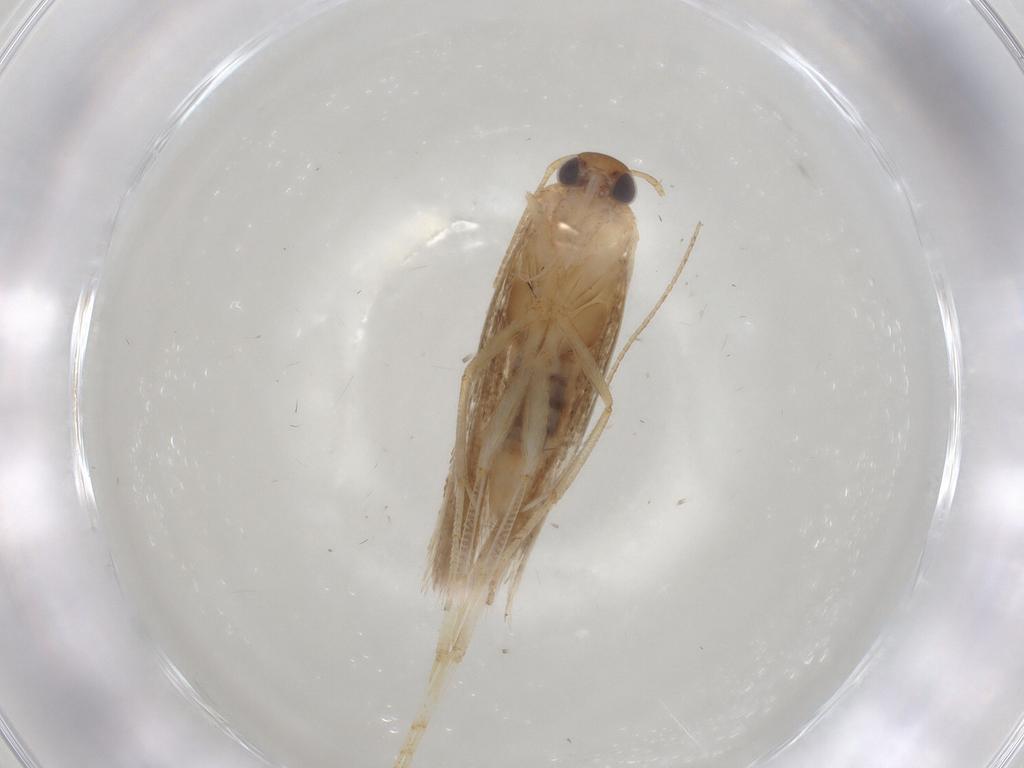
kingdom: Animalia
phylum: Arthropoda
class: Insecta
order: Lepidoptera
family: Gelechiidae
